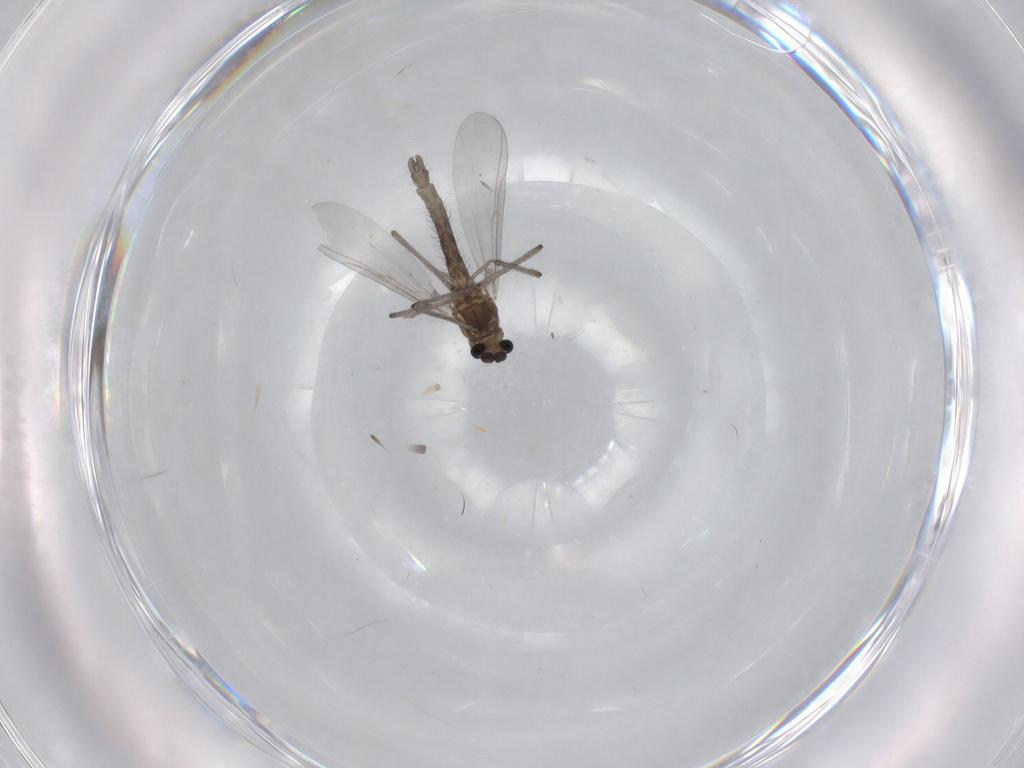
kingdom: Animalia
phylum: Arthropoda
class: Insecta
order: Diptera
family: Chironomidae
